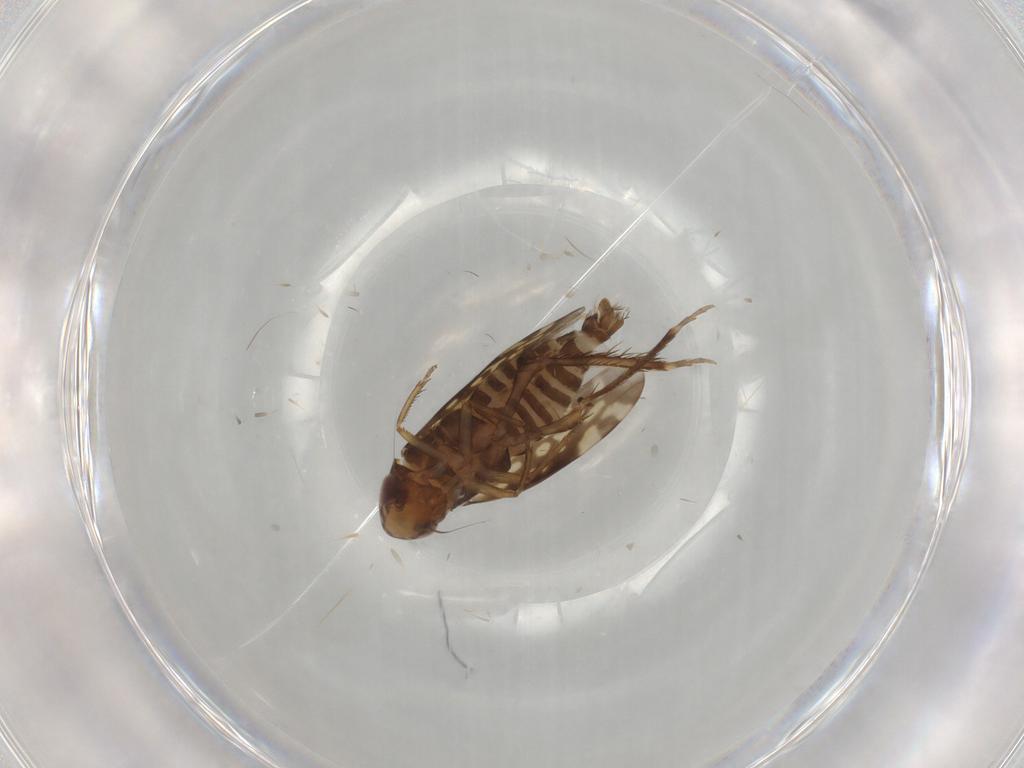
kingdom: Animalia
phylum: Arthropoda
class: Insecta
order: Hemiptera
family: Cicadellidae
